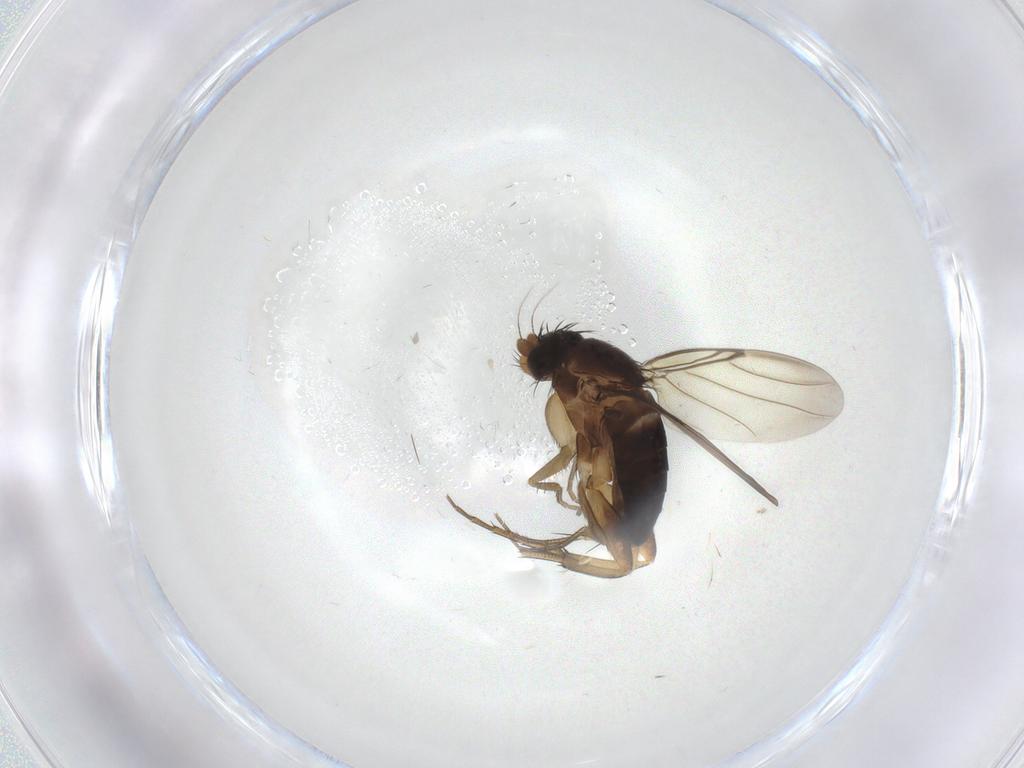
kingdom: Animalia
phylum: Arthropoda
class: Insecta
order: Diptera
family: Phoridae
